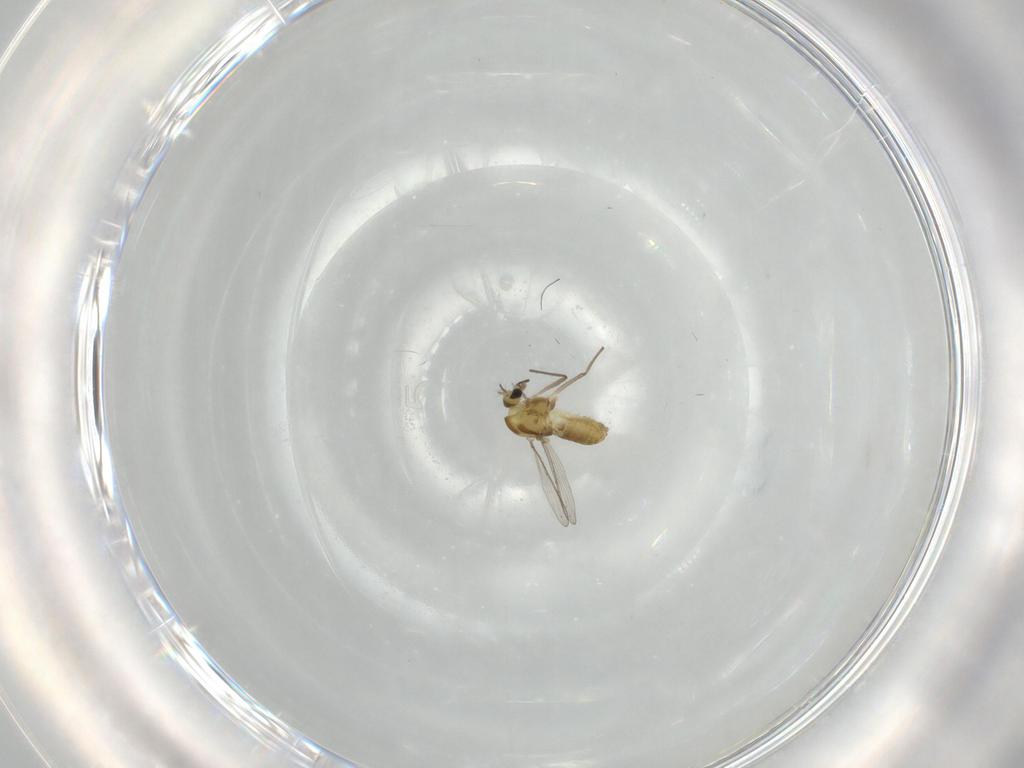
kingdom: Animalia
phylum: Arthropoda
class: Insecta
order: Diptera
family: Chironomidae
